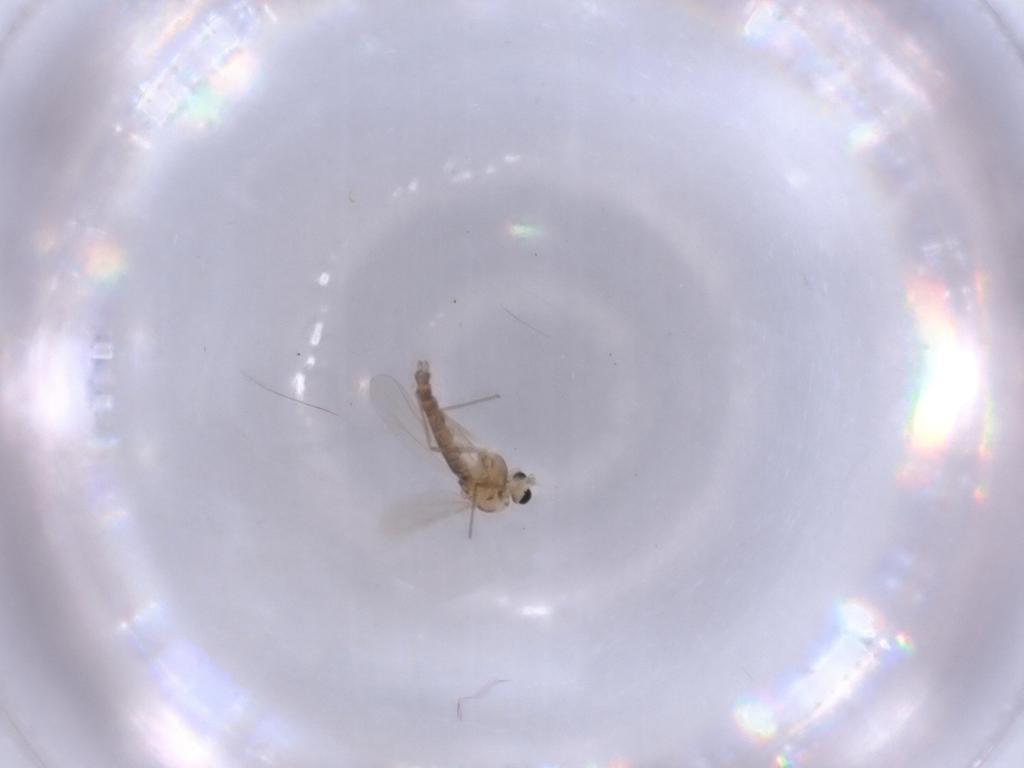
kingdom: Animalia
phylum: Arthropoda
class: Insecta
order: Diptera
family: Chironomidae
